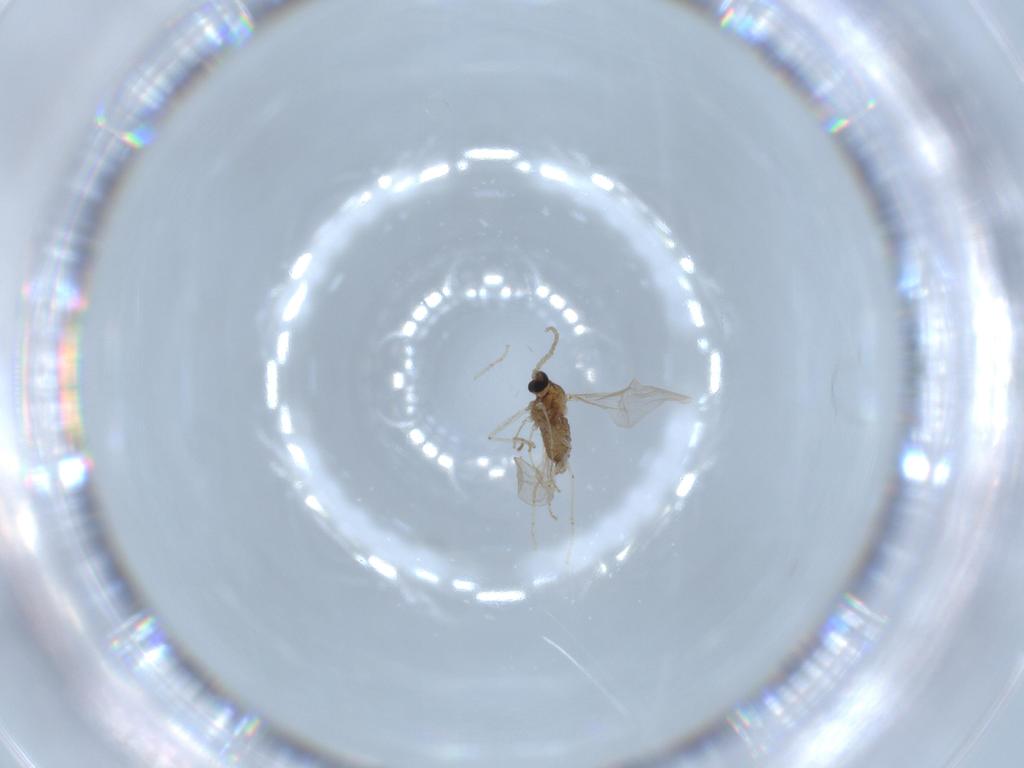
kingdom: Animalia
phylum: Arthropoda
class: Insecta
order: Diptera
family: Cecidomyiidae
